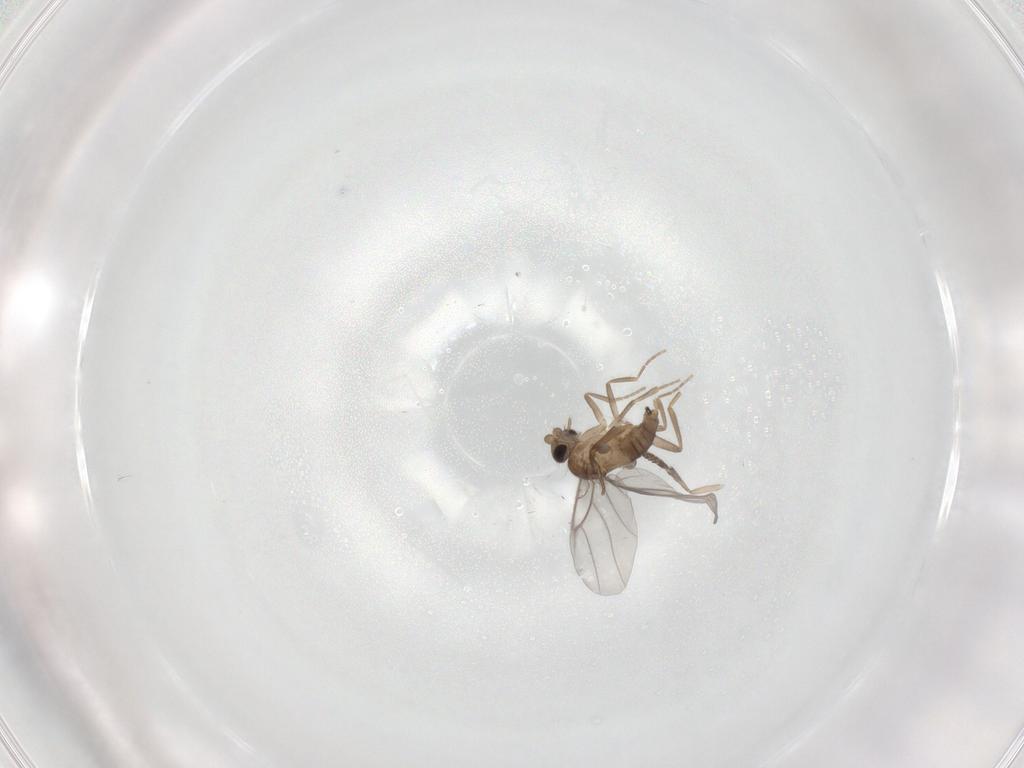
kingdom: Animalia
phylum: Arthropoda
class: Insecta
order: Diptera
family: Psychodidae
